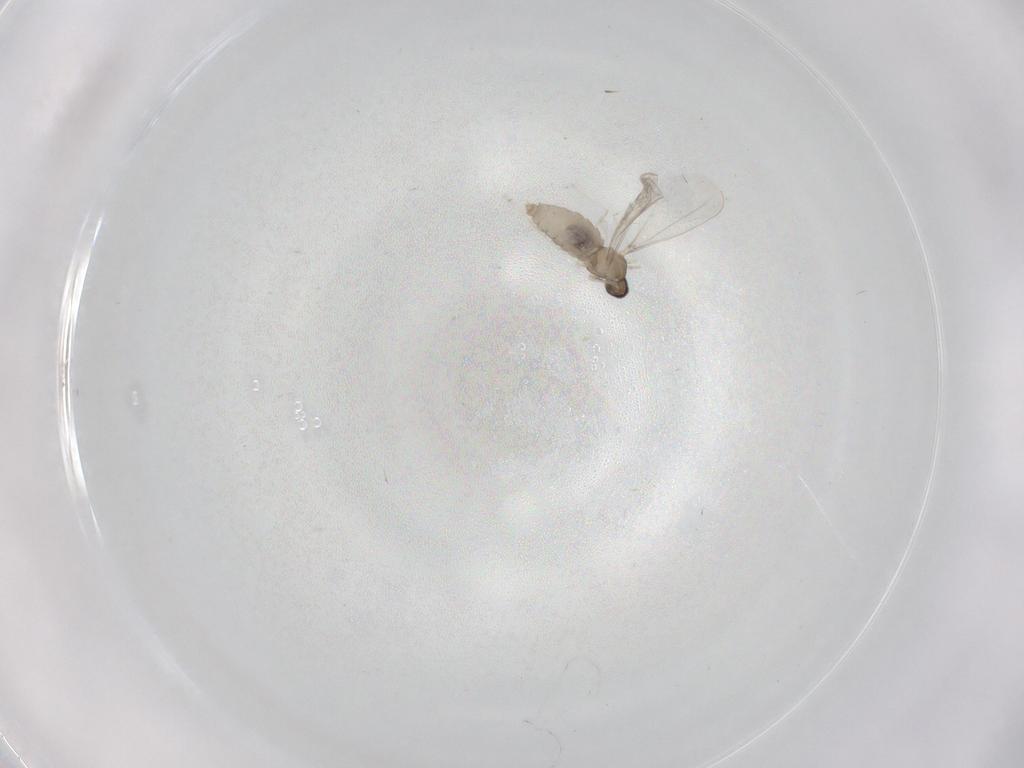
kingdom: Animalia
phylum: Arthropoda
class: Insecta
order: Diptera
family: Cecidomyiidae
